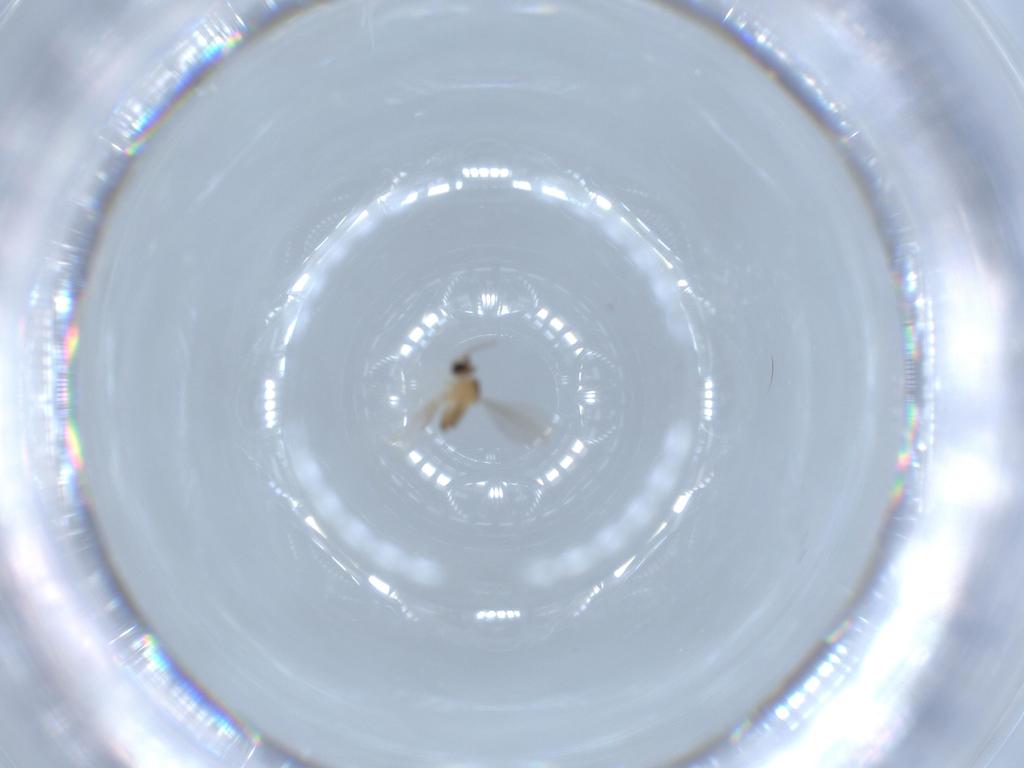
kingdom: Animalia
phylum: Arthropoda
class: Insecta
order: Diptera
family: Cecidomyiidae
